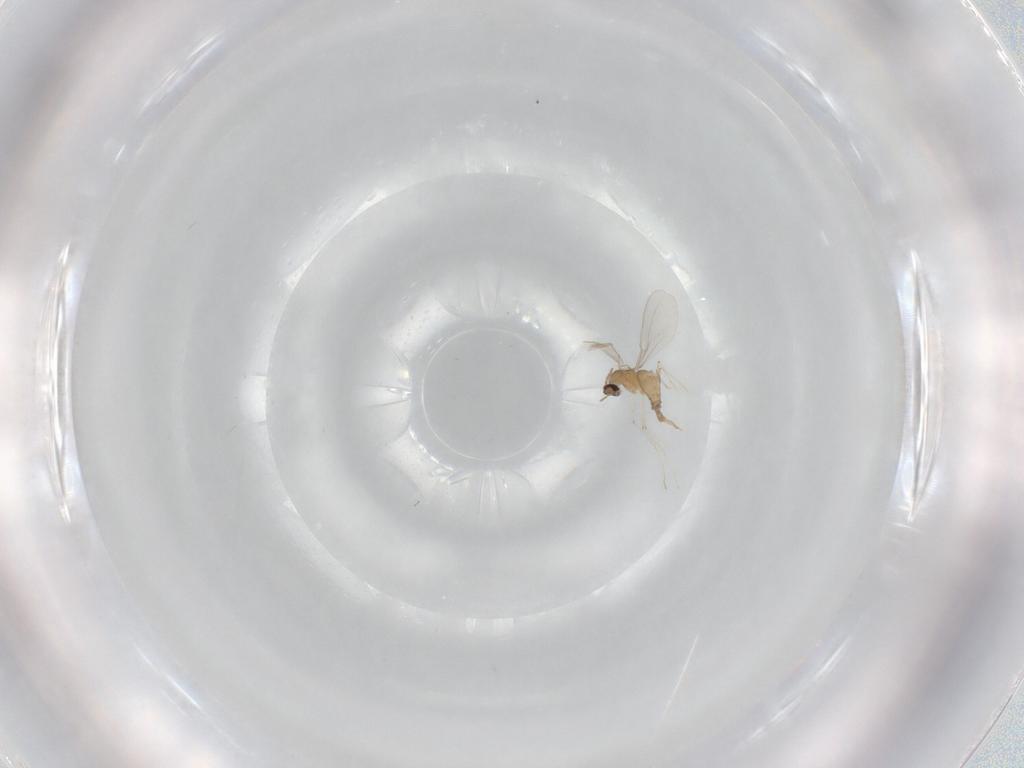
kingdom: Animalia
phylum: Arthropoda
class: Insecta
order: Diptera
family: Cecidomyiidae
